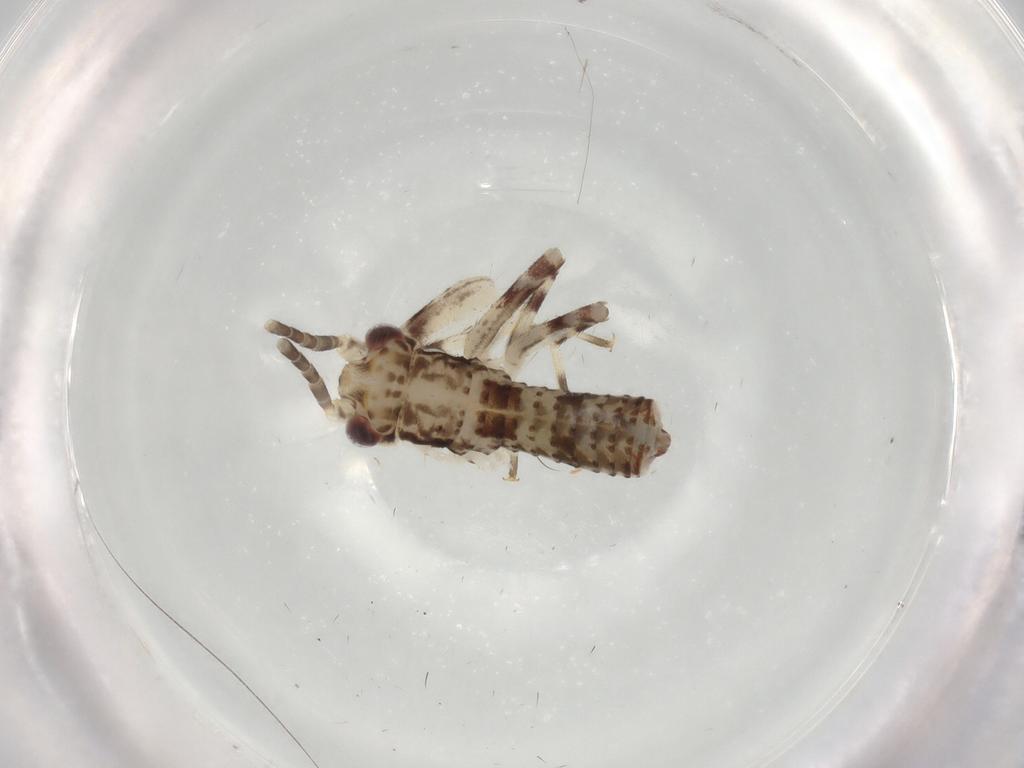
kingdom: Animalia
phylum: Arthropoda
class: Insecta
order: Orthoptera
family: Gryllidae
